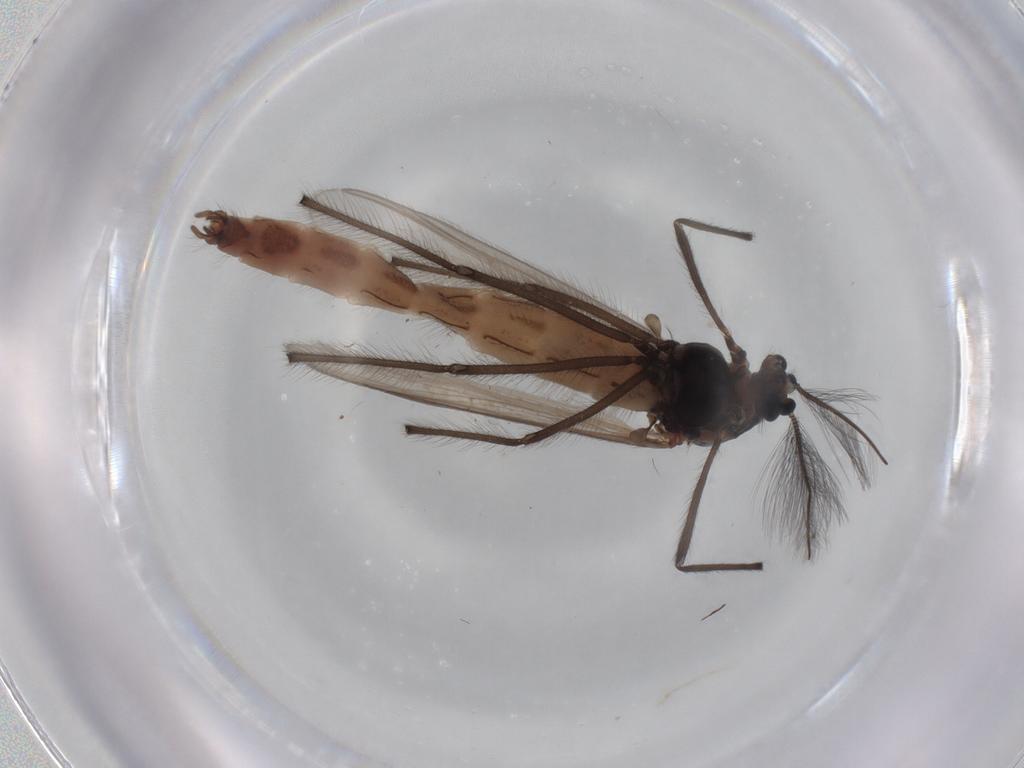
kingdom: Animalia
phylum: Arthropoda
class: Insecta
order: Diptera
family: Chironomidae
